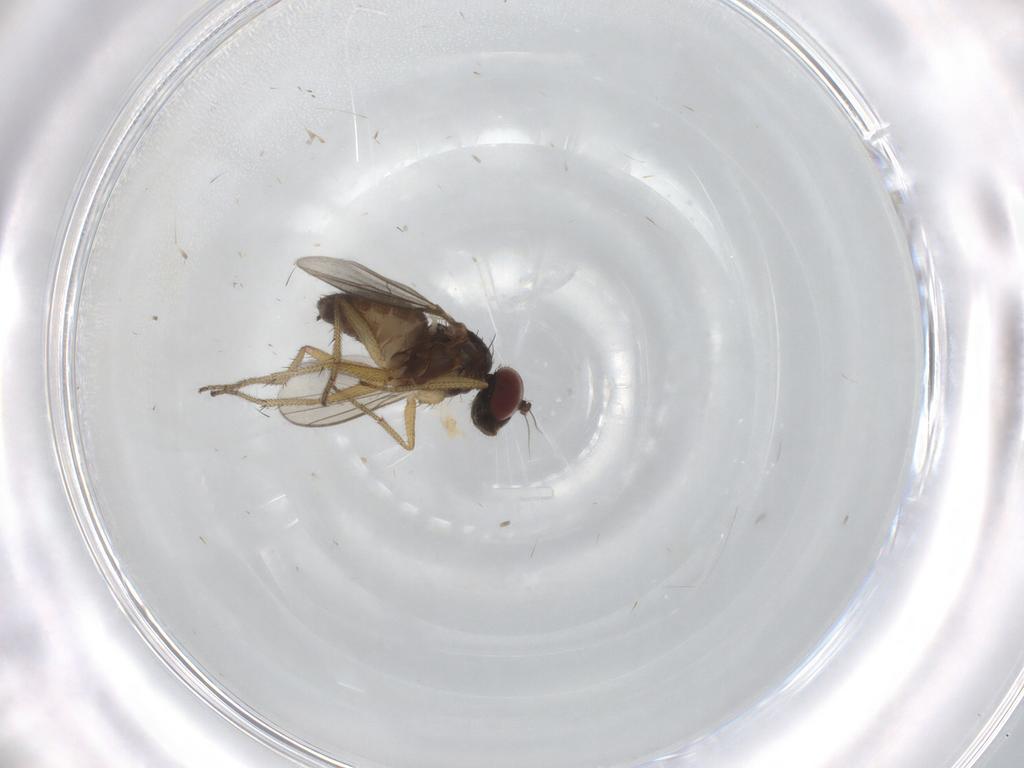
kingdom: Animalia
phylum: Arthropoda
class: Insecta
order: Diptera
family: Dolichopodidae
